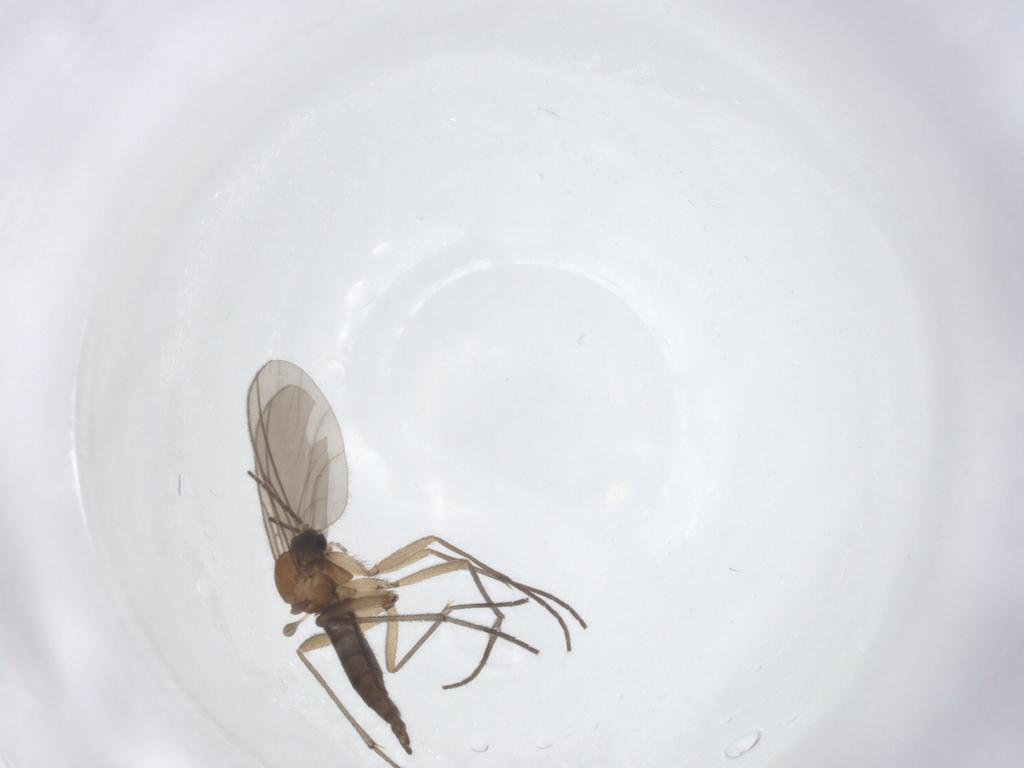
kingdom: Animalia
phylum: Arthropoda
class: Insecta
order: Diptera
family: Sciaridae
